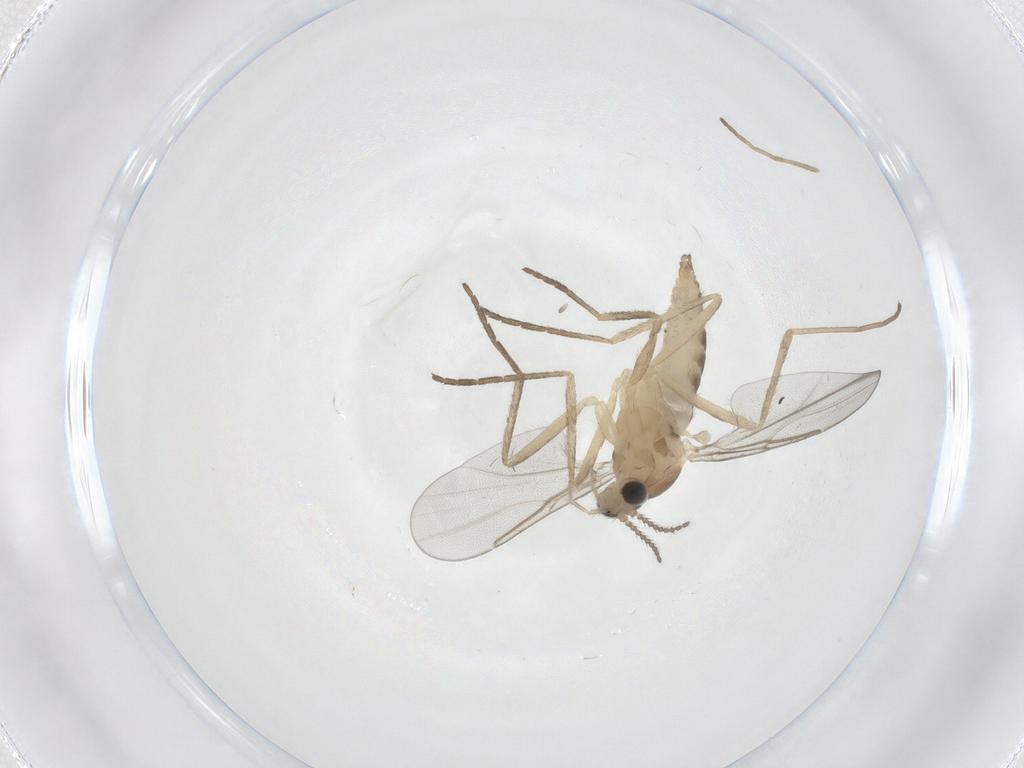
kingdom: Animalia
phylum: Arthropoda
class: Insecta
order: Diptera
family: Cecidomyiidae
